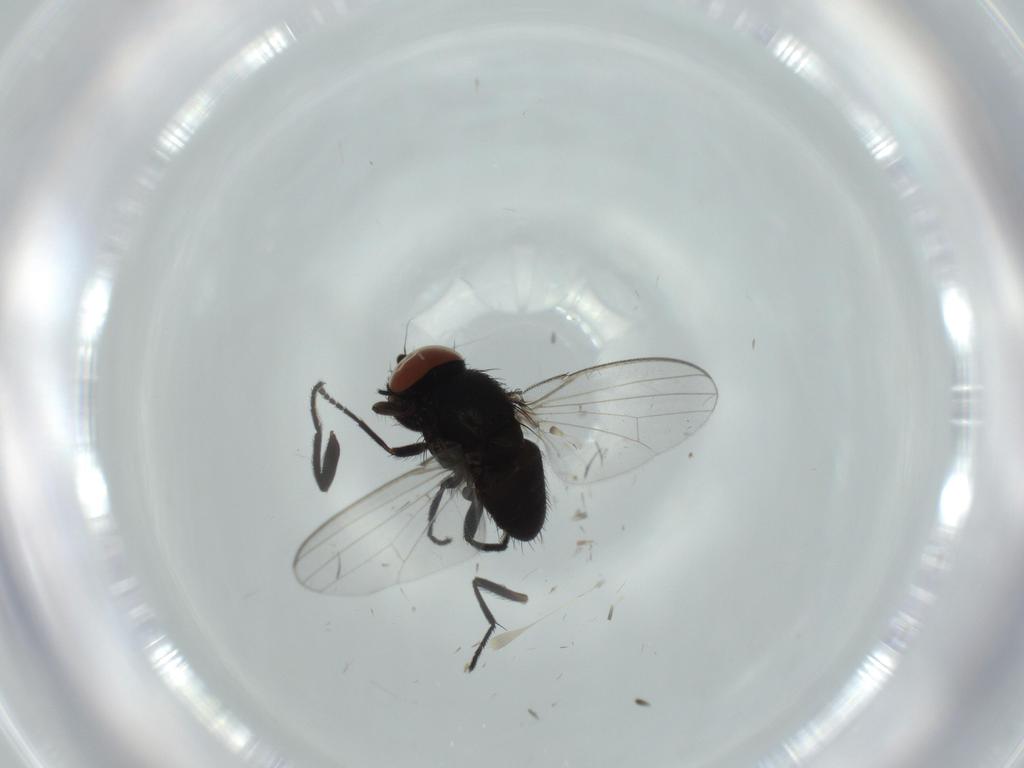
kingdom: Animalia
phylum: Arthropoda
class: Insecta
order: Diptera
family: Milichiidae
